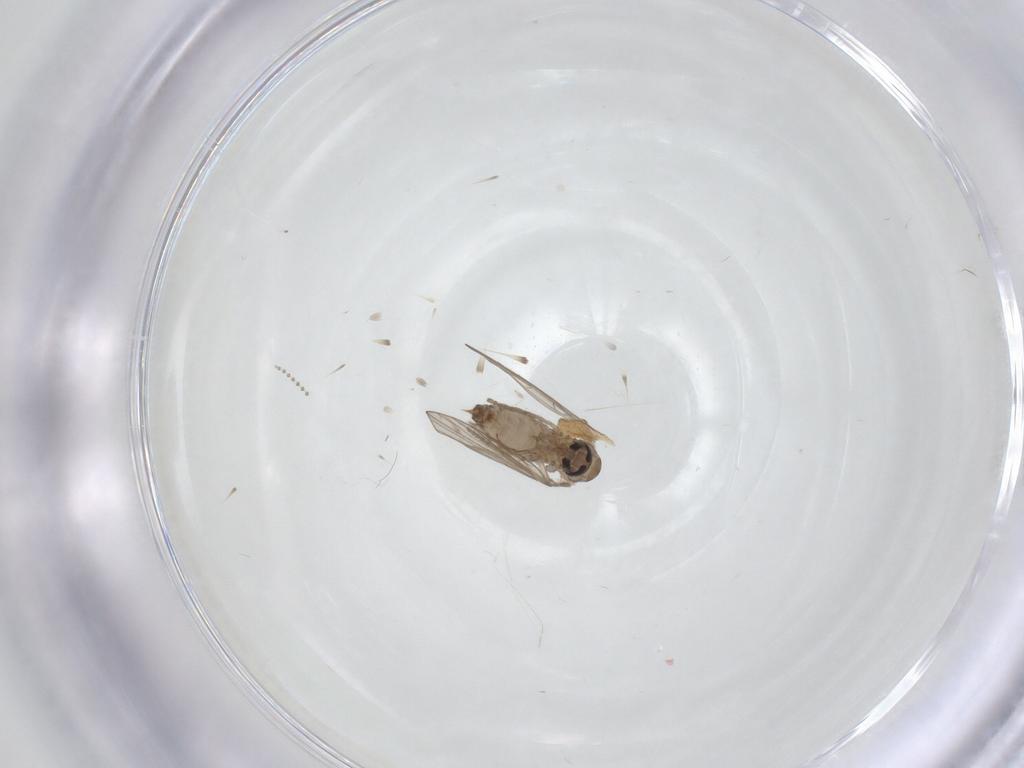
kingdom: Animalia
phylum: Arthropoda
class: Insecta
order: Diptera
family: Psychodidae
